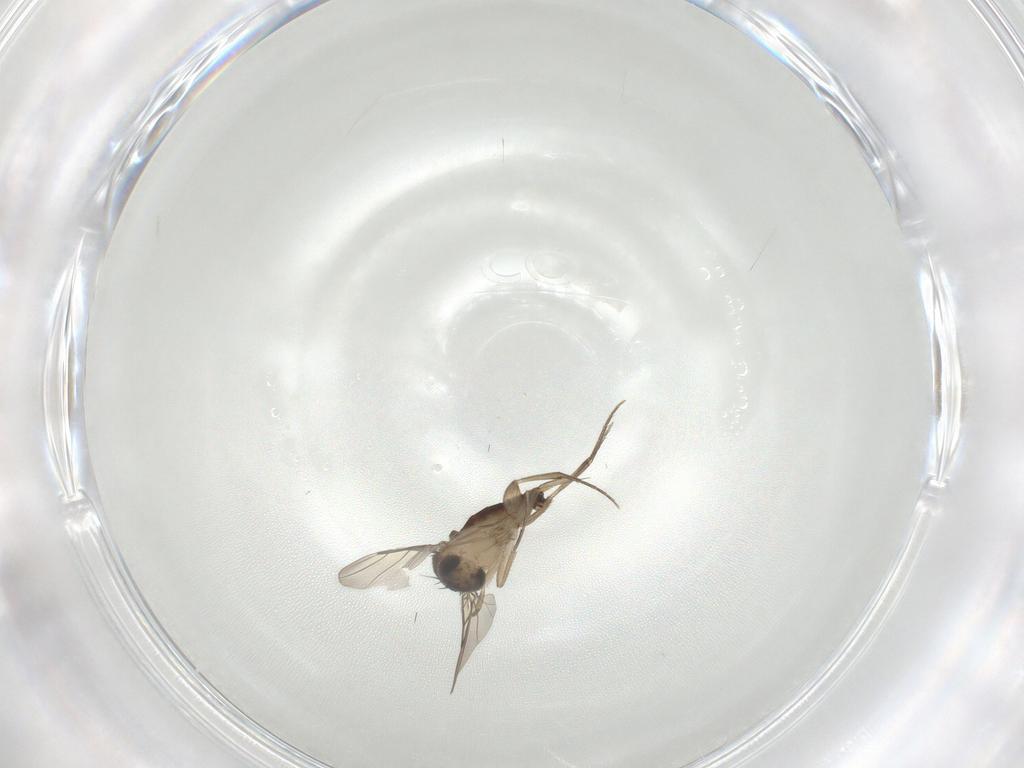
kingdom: Animalia
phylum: Arthropoda
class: Insecta
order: Diptera
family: Phoridae
